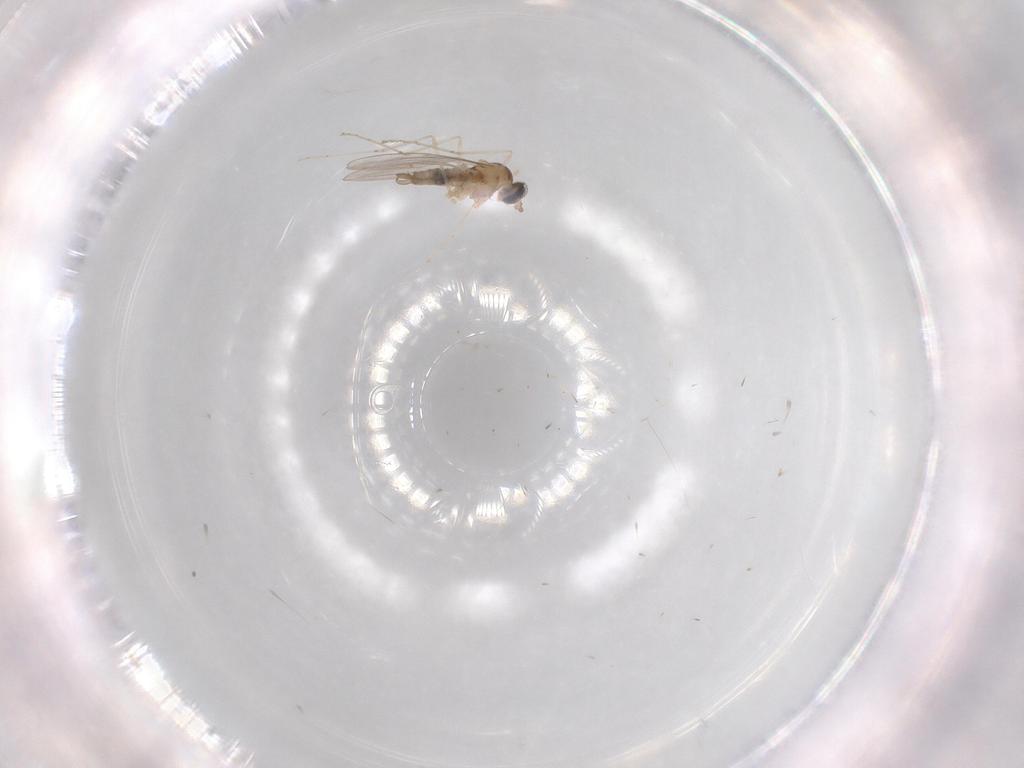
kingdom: Animalia
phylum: Arthropoda
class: Insecta
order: Diptera
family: Cecidomyiidae
